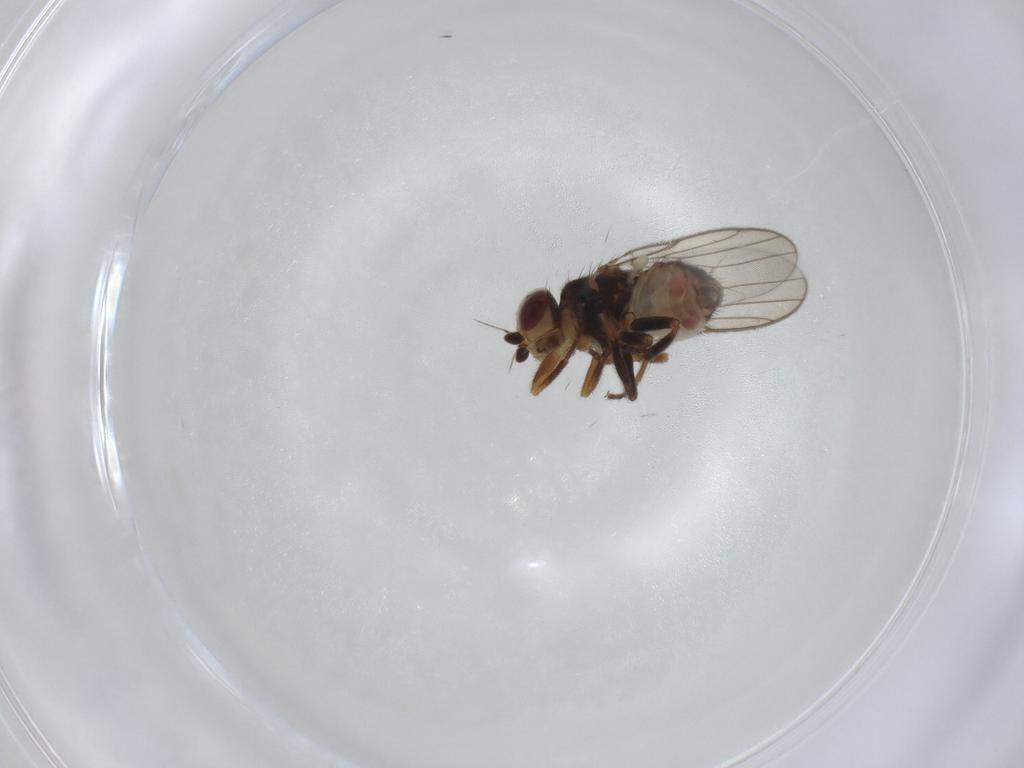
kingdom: Animalia
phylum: Arthropoda
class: Insecta
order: Diptera
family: Chloropidae
